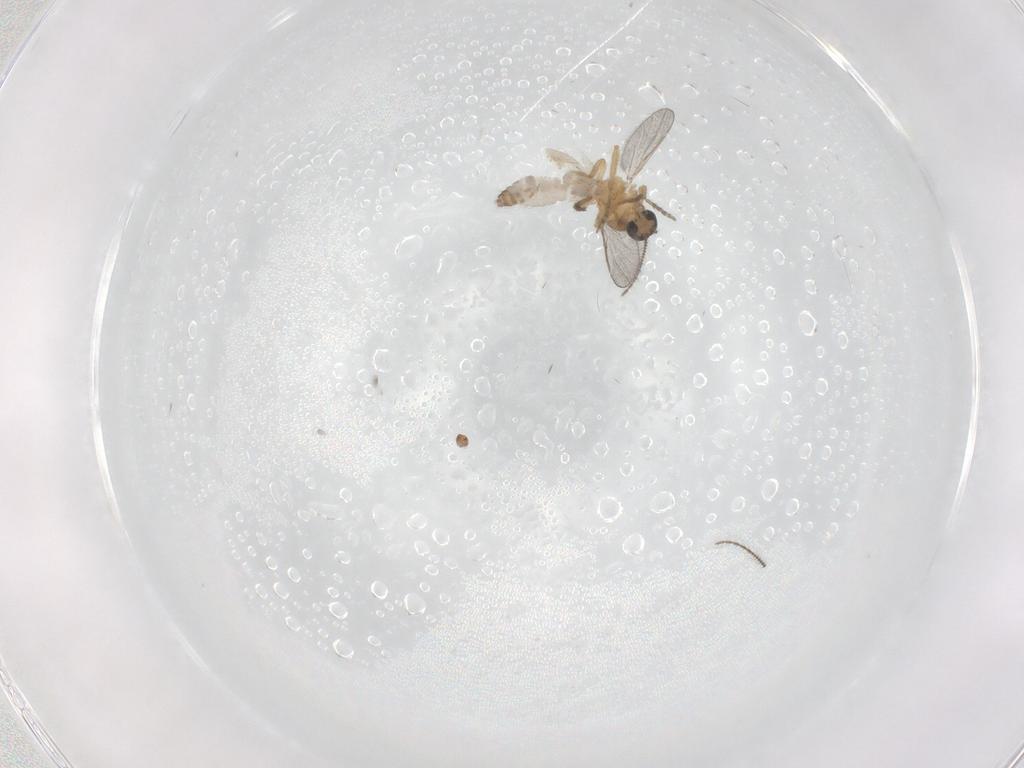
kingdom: Animalia
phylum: Arthropoda
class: Insecta
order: Diptera
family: Psychodidae
